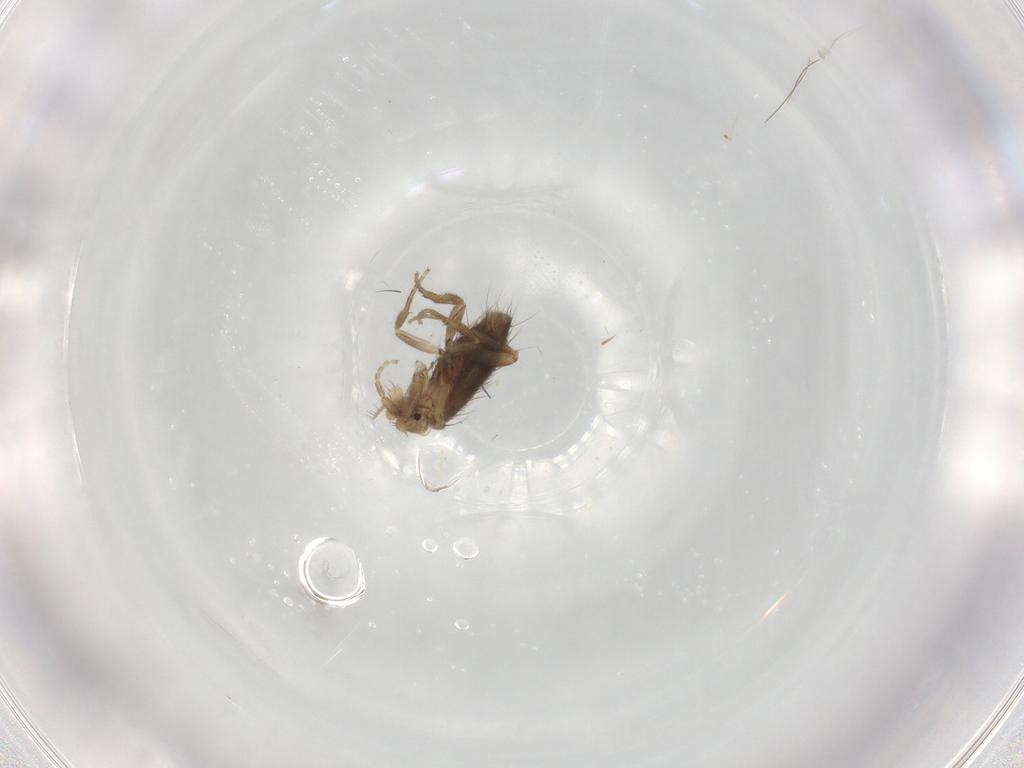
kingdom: Animalia
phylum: Arthropoda
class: Insecta
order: Diptera
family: Phoridae
